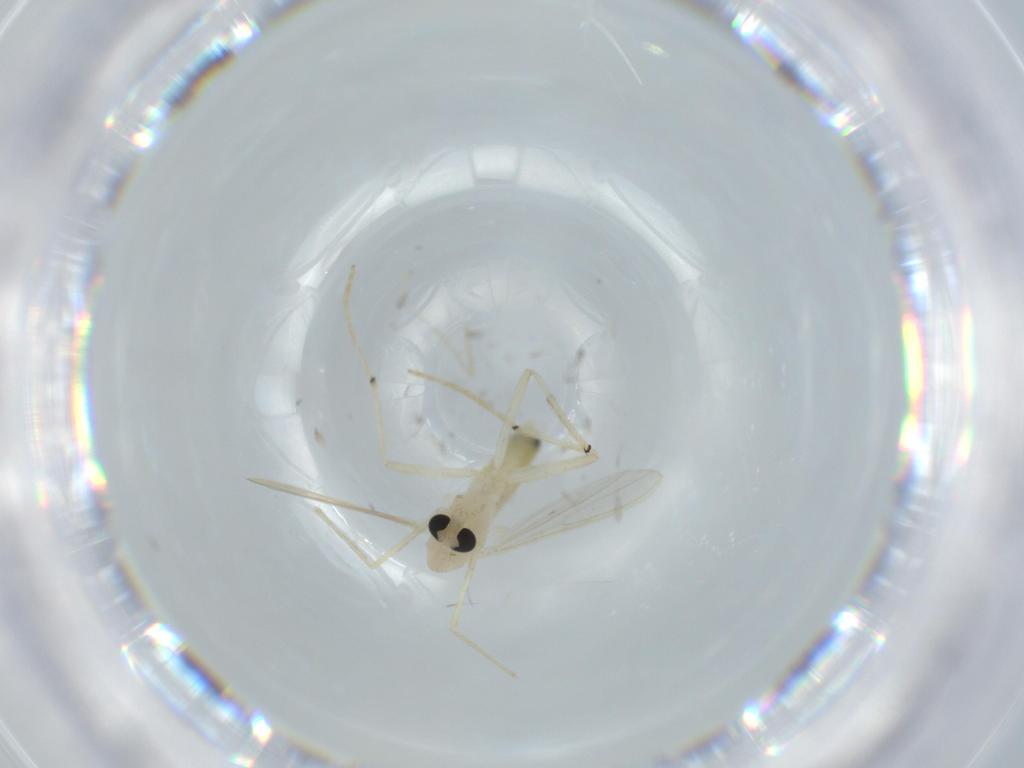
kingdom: Animalia
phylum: Arthropoda
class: Insecta
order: Diptera
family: Chironomidae
